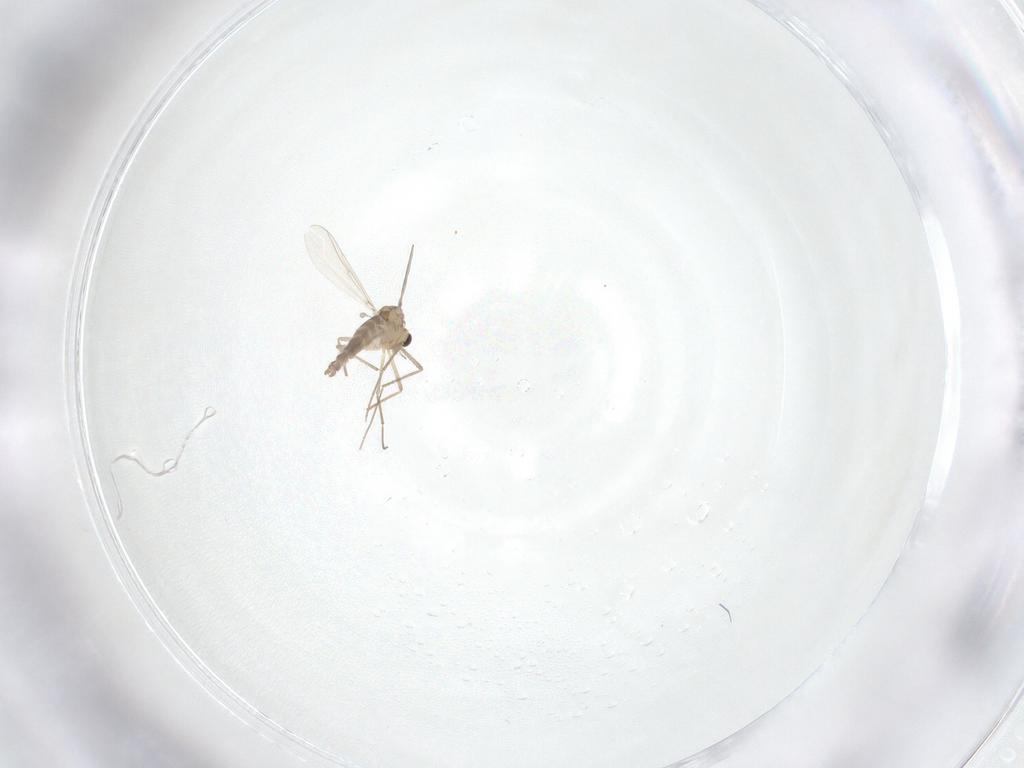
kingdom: Animalia
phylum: Arthropoda
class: Insecta
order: Diptera
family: Chironomidae
